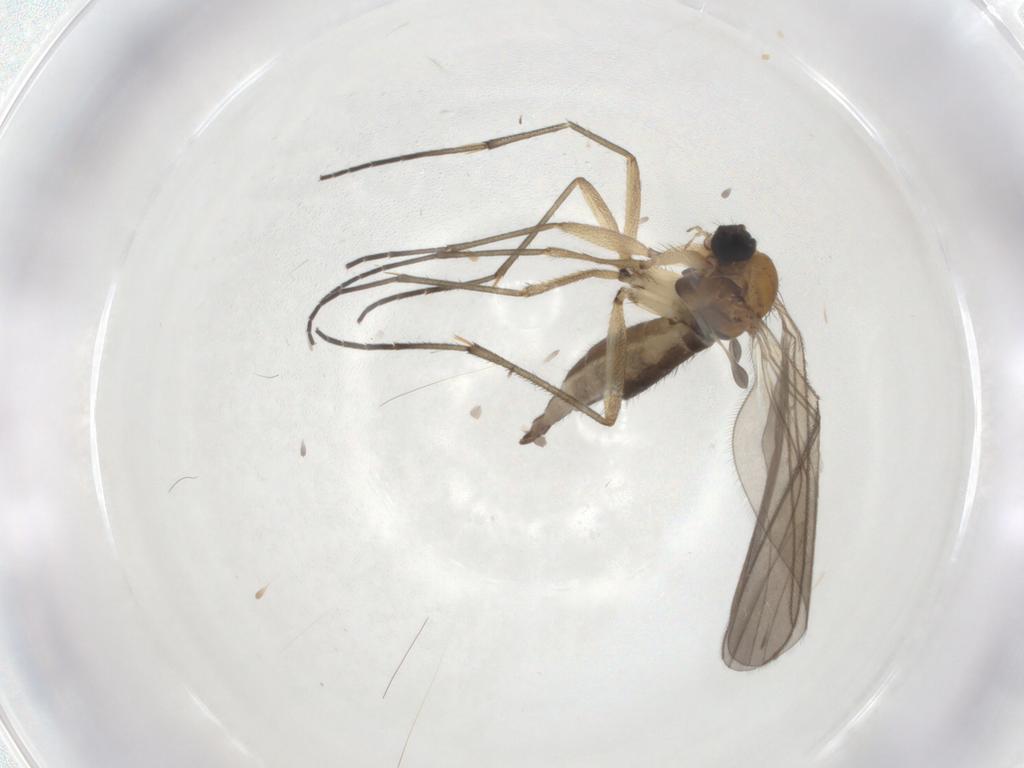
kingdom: Animalia
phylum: Arthropoda
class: Insecta
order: Diptera
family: Sciaridae
